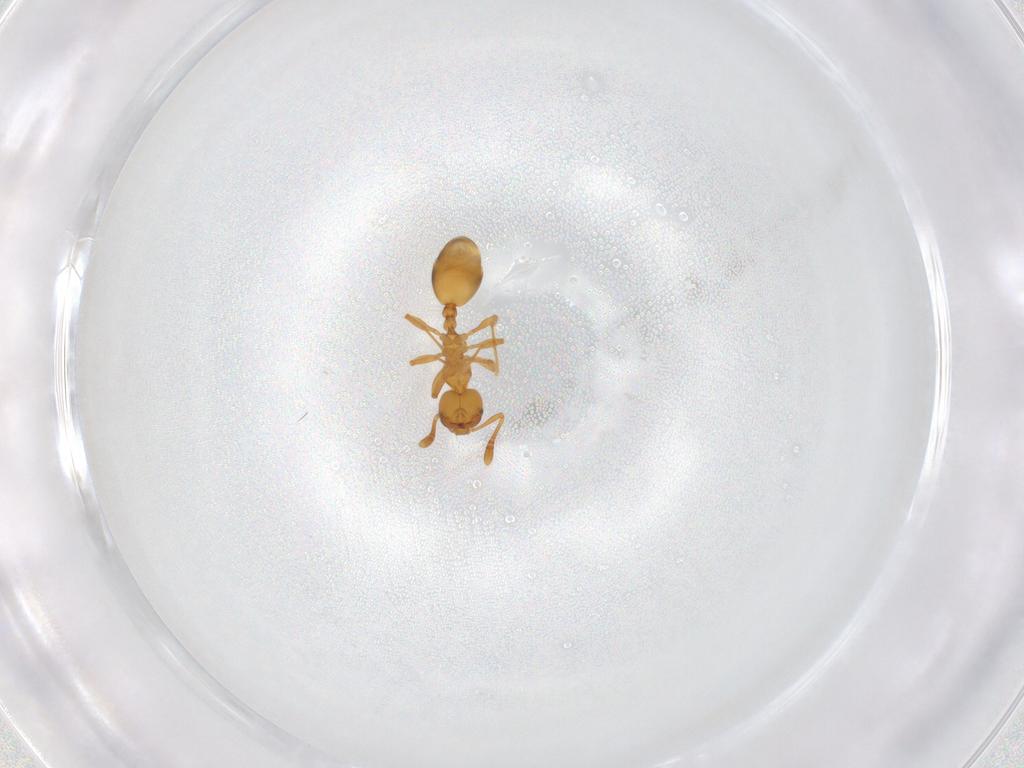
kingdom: Animalia
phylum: Arthropoda
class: Insecta
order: Hymenoptera
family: Formicidae
